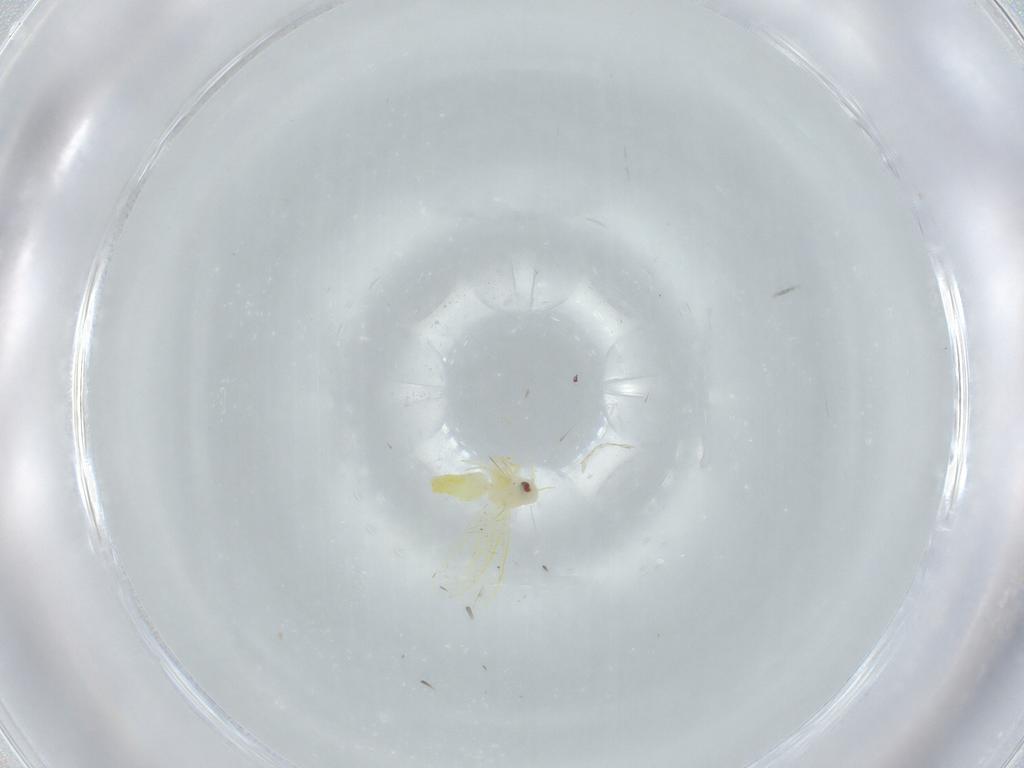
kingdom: Animalia
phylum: Arthropoda
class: Insecta
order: Hemiptera
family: Aleyrodidae
